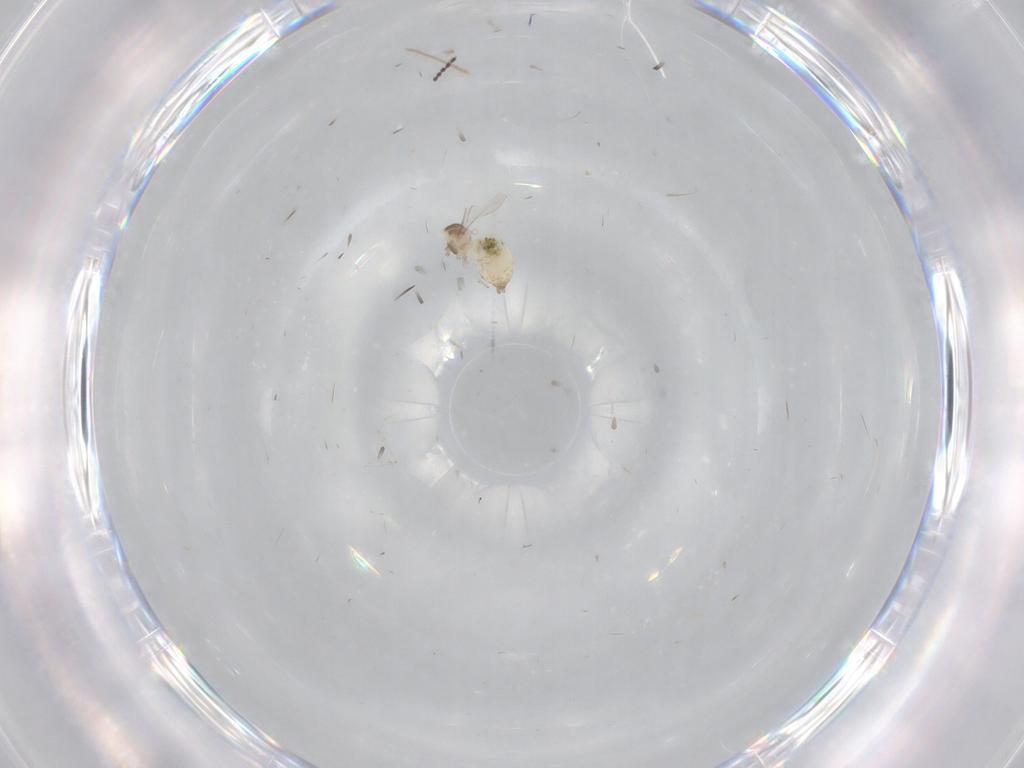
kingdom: Animalia
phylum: Arthropoda
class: Insecta
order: Diptera
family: Cecidomyiidae
